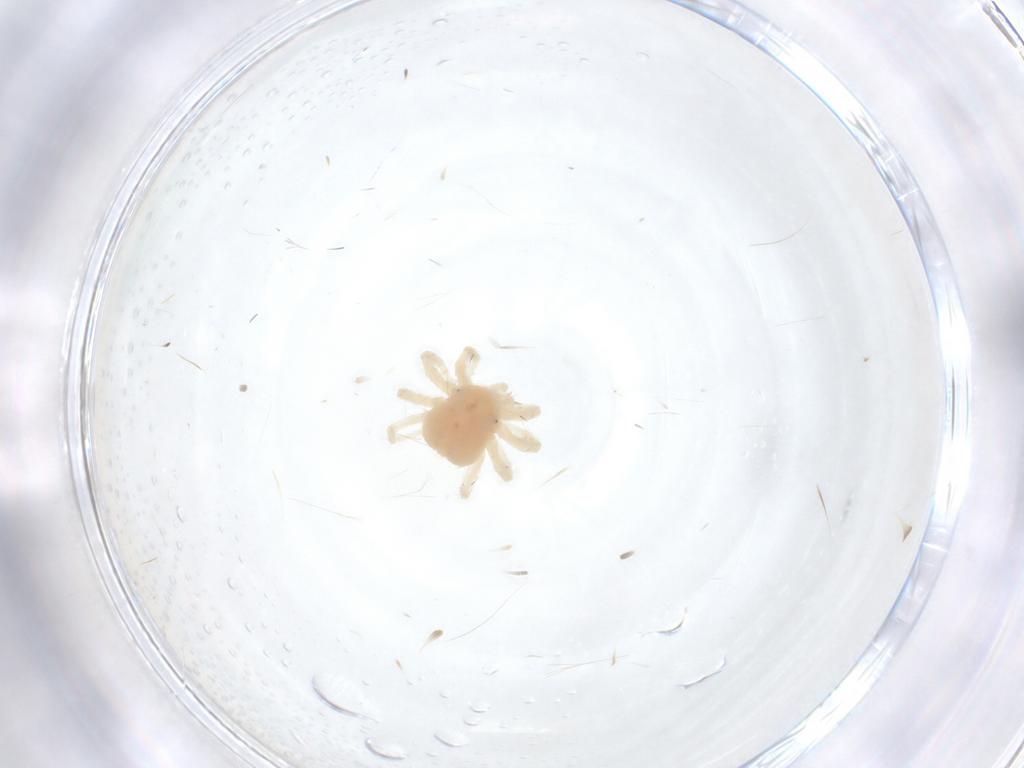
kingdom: Animalia
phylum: Arthropoda
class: Arachnida
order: Trombidiformes
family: Anystidae
